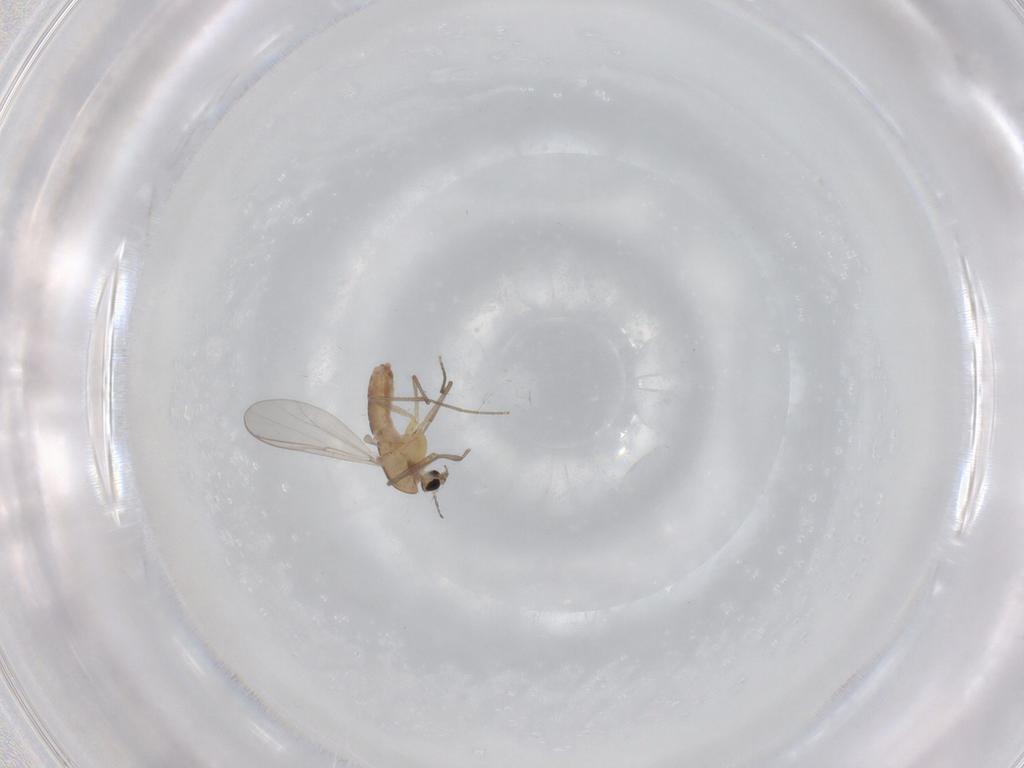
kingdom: Animalia
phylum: Arthropoda
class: Insecta
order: Diptera
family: Chironomidae
